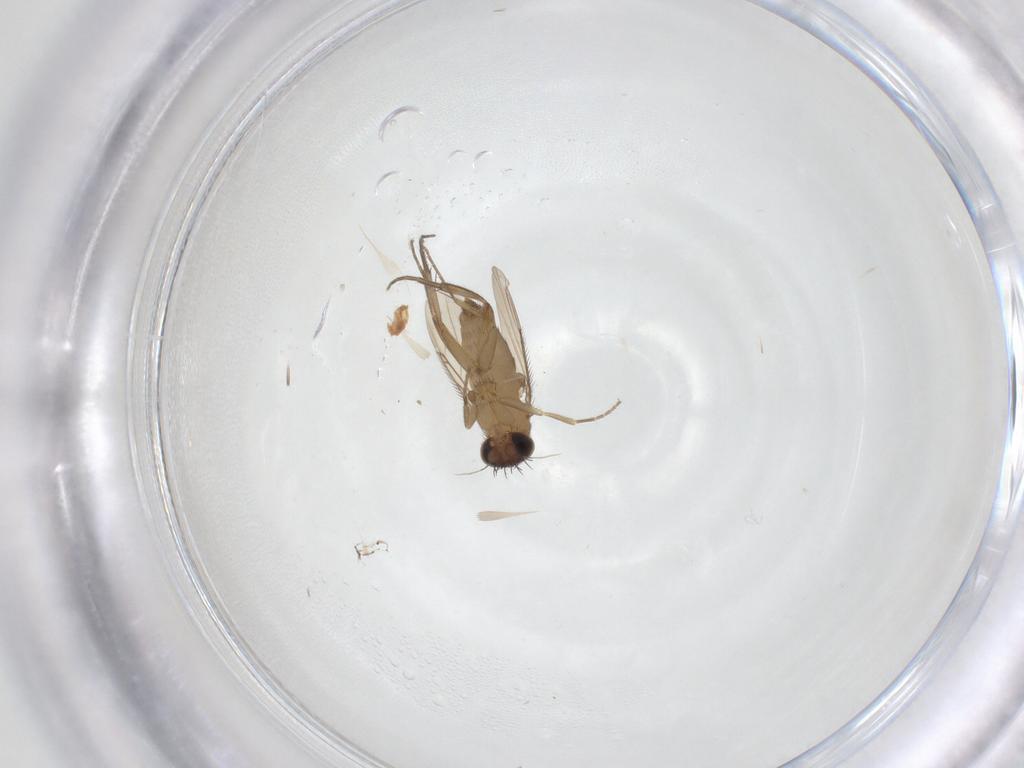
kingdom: Animalia
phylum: Arthropoda
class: Insecta
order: Diptera
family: Phoridae
